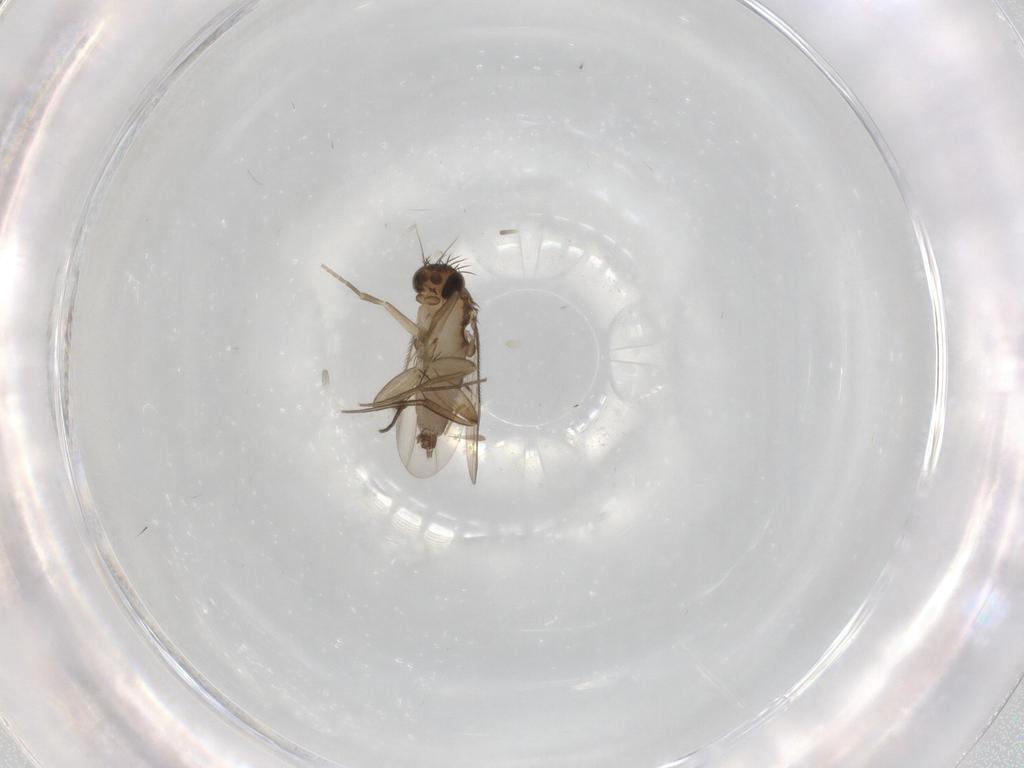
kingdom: Animalia
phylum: Arthropoda
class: Insecta
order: Diptera
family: Chironomidae
